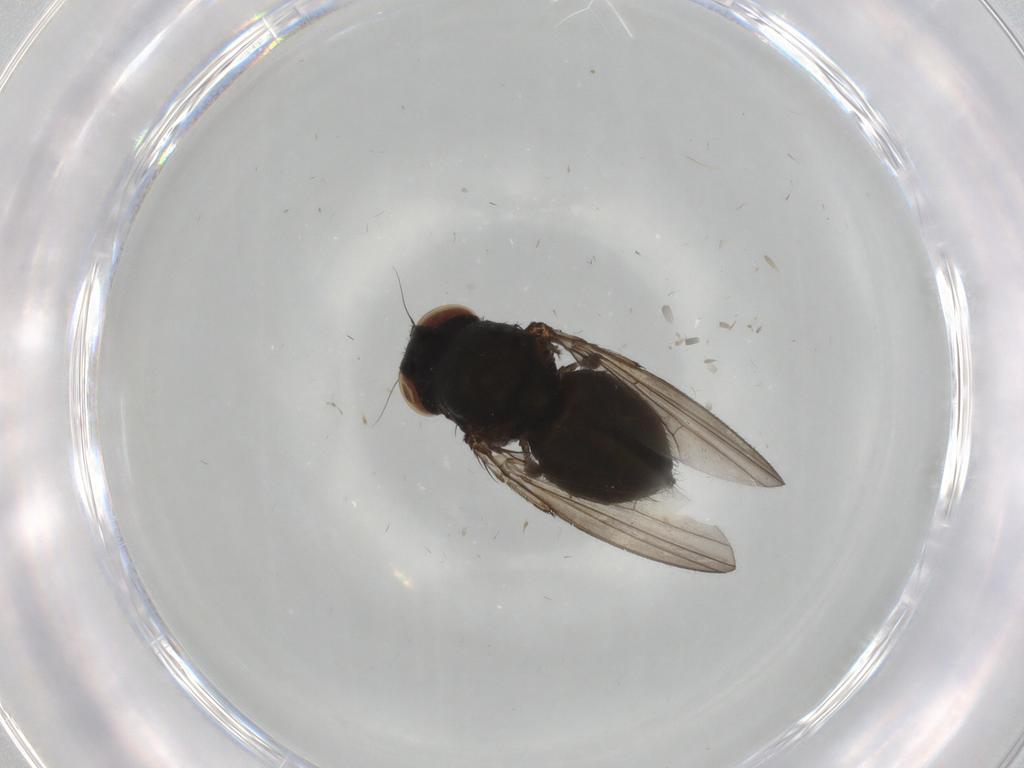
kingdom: Animalia
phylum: Arthropoda
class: Insecta
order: Diptera
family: Milichiidae
